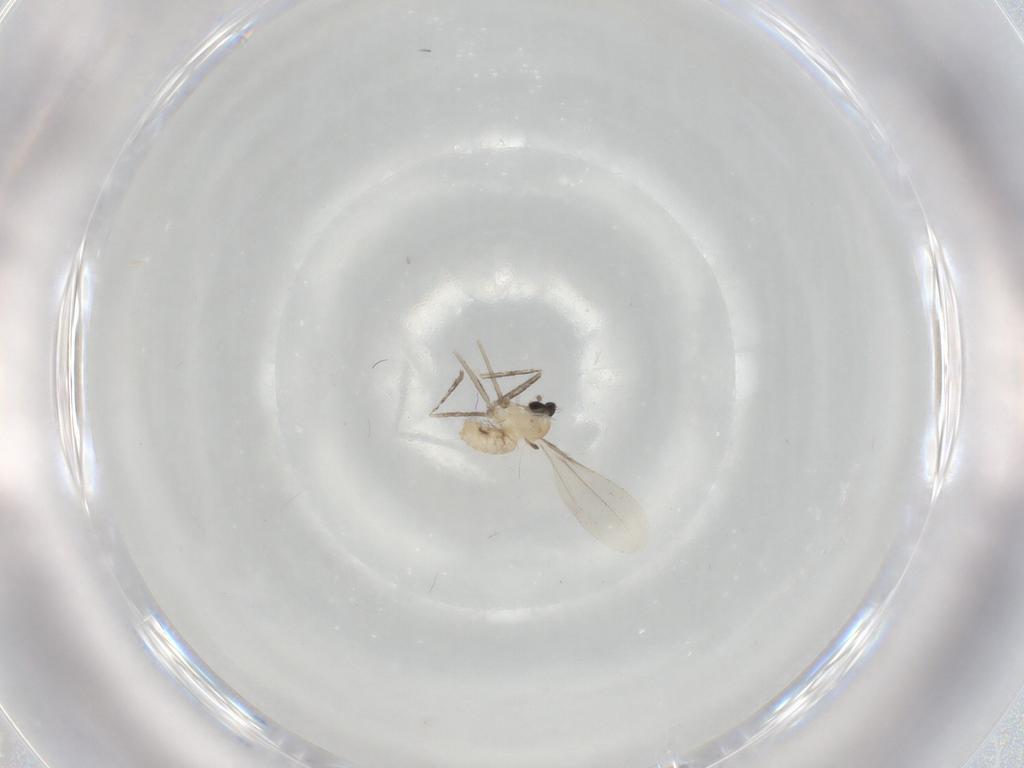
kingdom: Animalia
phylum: Arthropoda
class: Insecta
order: Diptera
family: Cecidomyiidae
